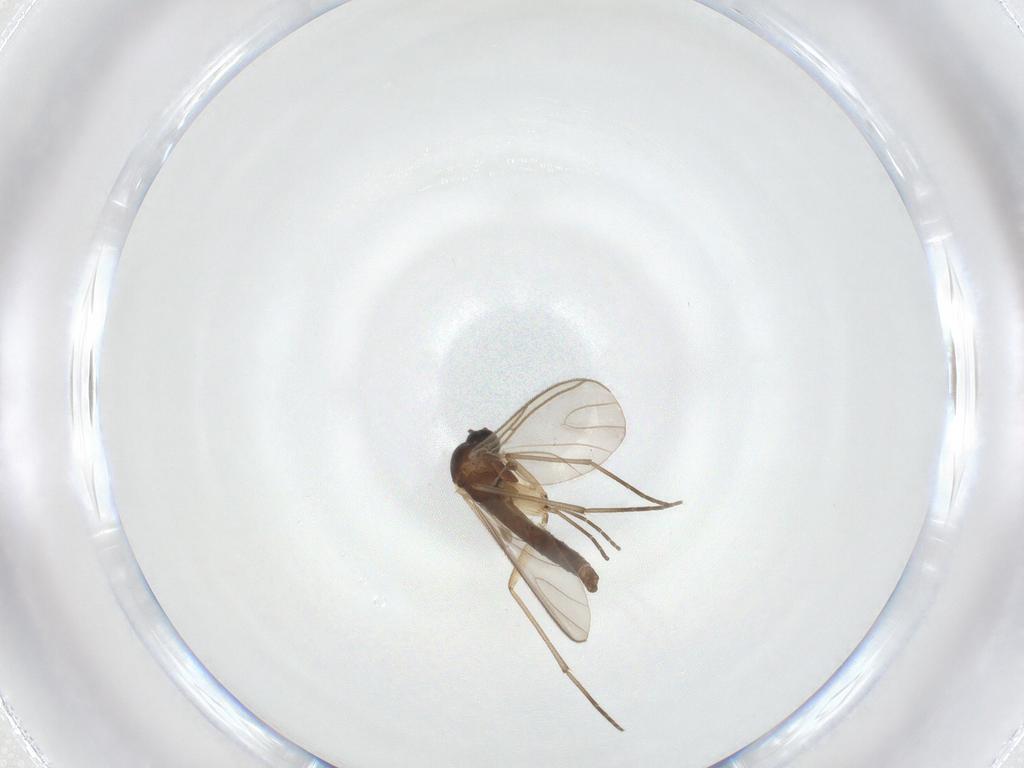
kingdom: Animalia
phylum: Arthropoda
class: Insecta
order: Diptera
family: Sciaridae
